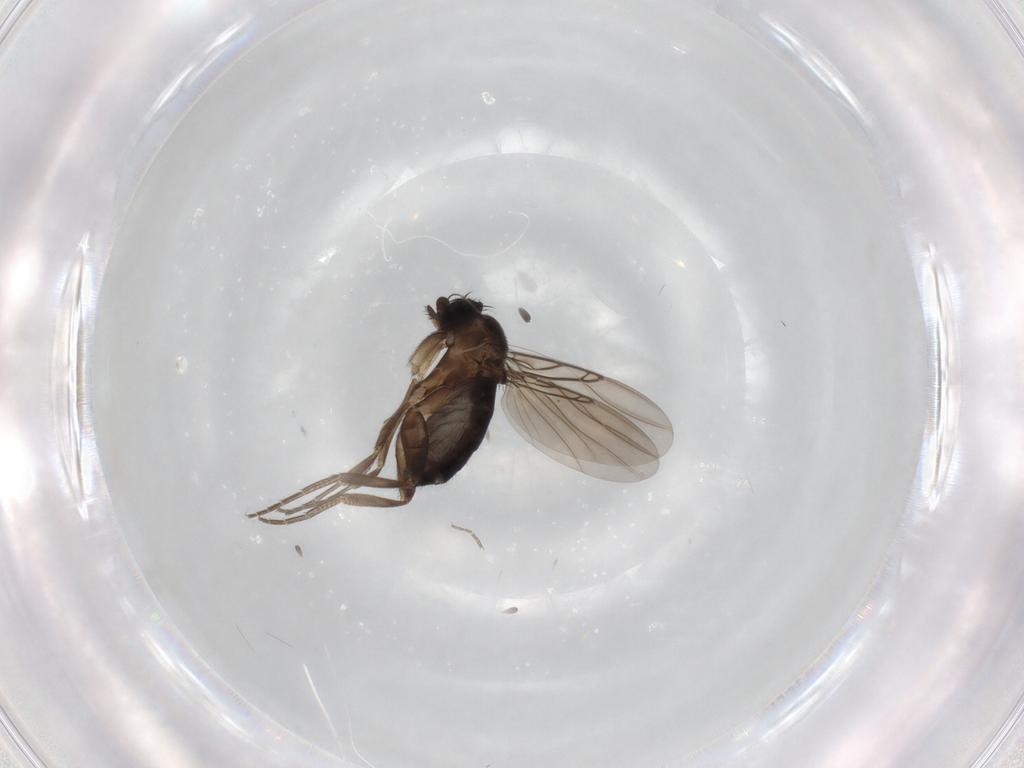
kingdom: Animalia
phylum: Arthropoda
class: Insecta
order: Diptera
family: Phoridae
